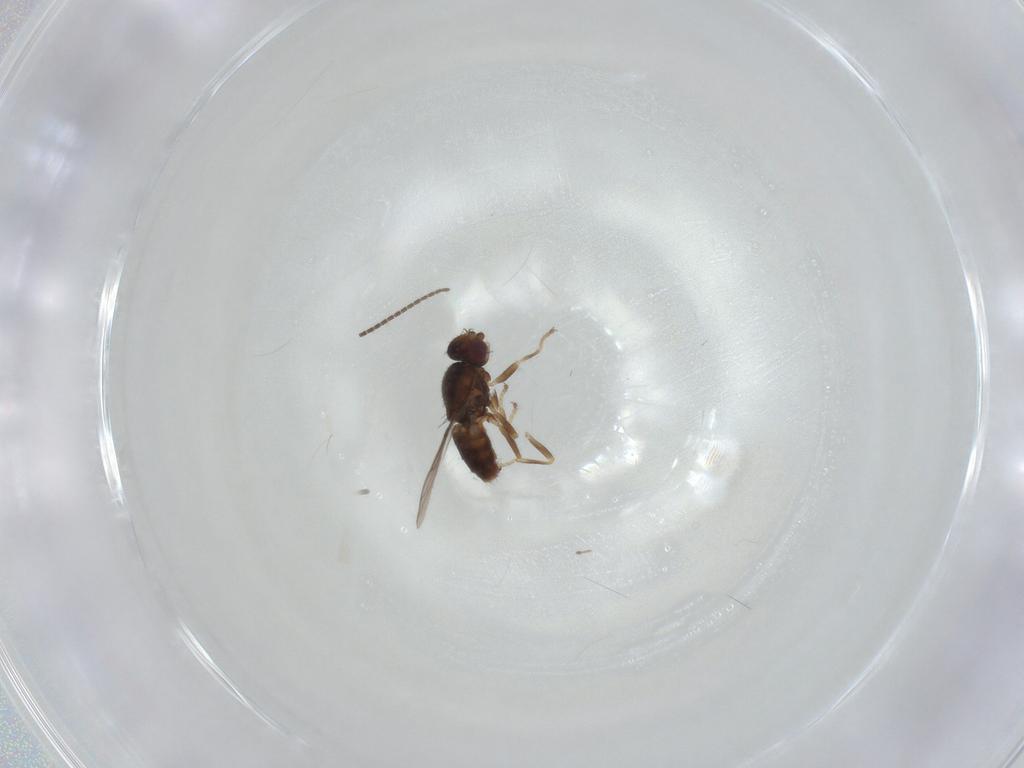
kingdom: Animalia
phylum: Arthropoda
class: Insecta
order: Diptera
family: Chloropidae
